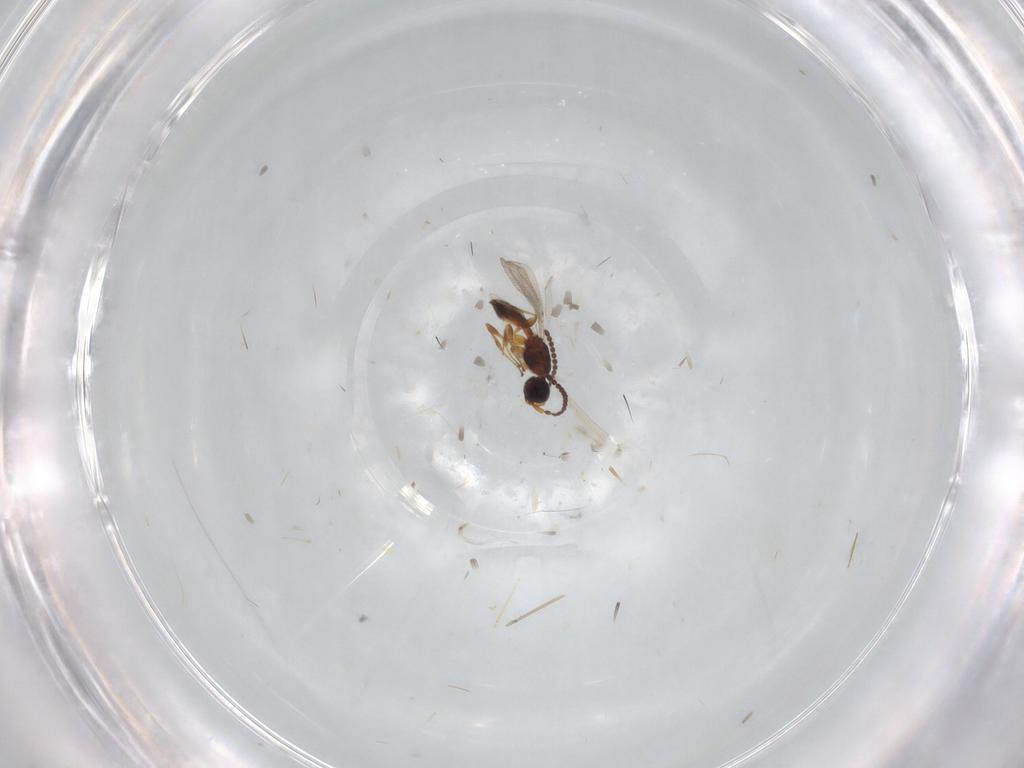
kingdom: Animalia
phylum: Arthropoda
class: Insecta
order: Hymenoptera
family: Diapriidae
